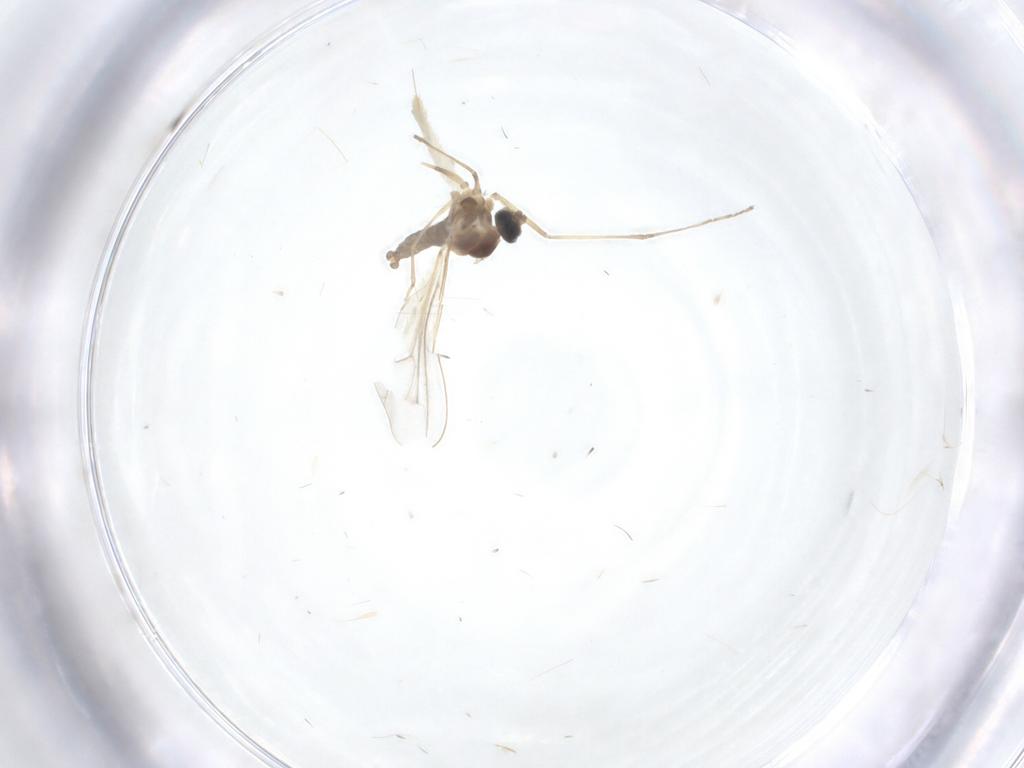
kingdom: Animalia
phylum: Arthropoda
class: Insecta
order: Diptera
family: Cecidomyiidae
